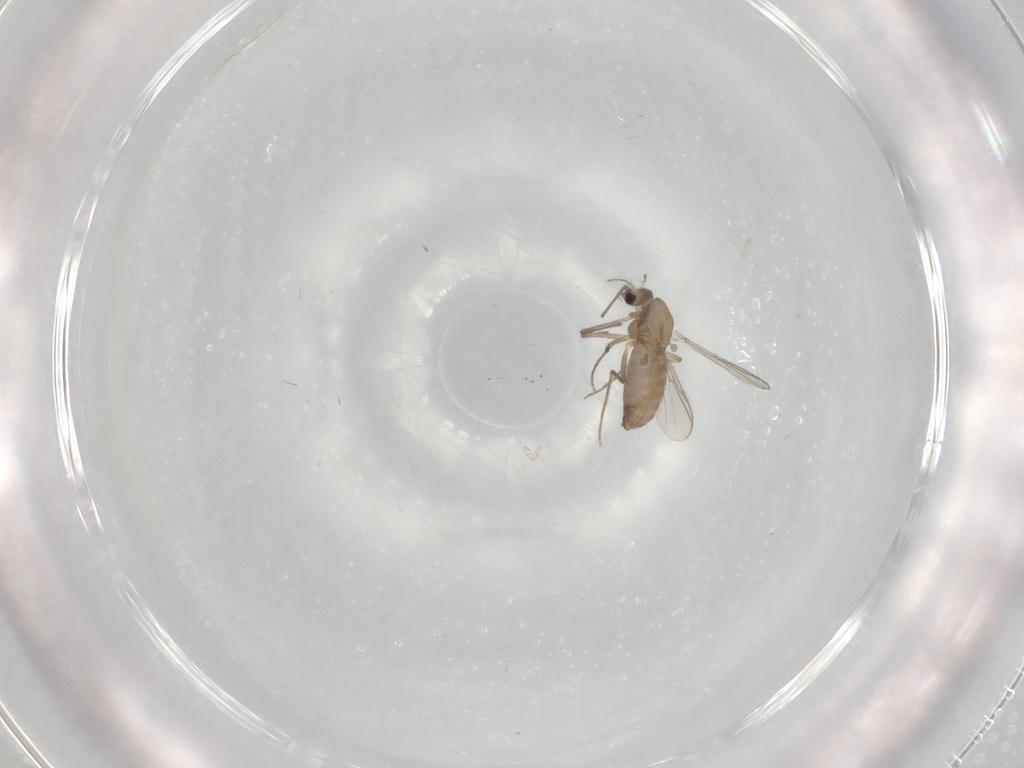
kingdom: Animalia
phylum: Arthropoda
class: Insecta
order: Diptera
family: Chironomidae
